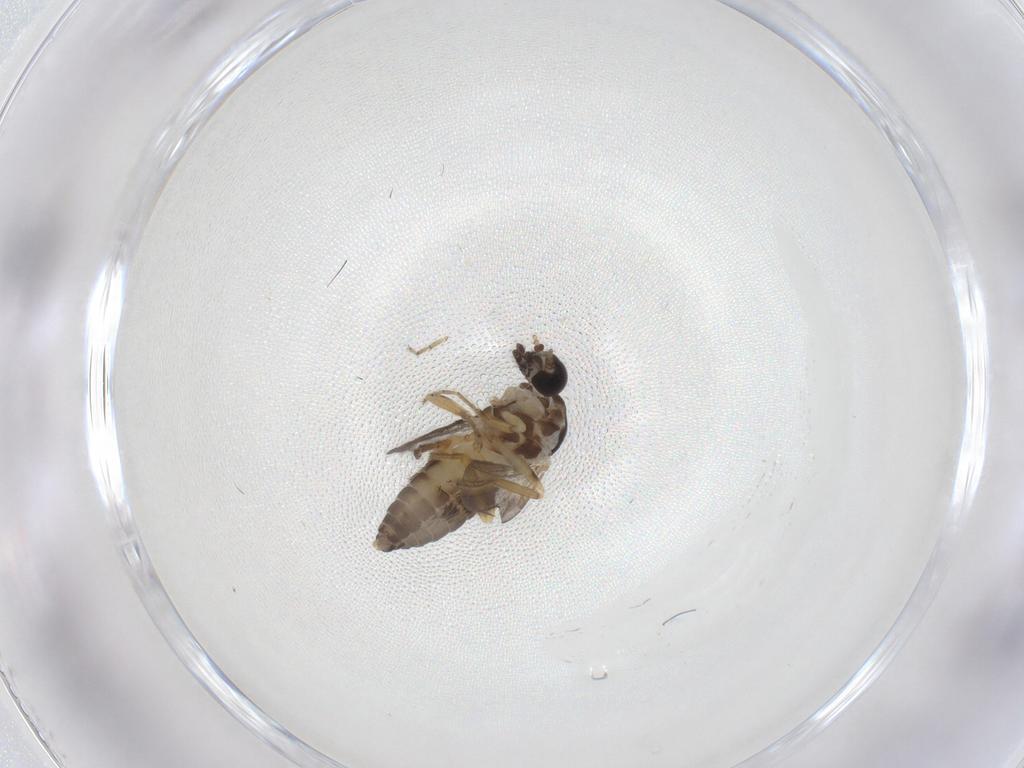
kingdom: Animalia
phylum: Arthropoda
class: Insecta
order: Diptera
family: Ceratopogonidae
